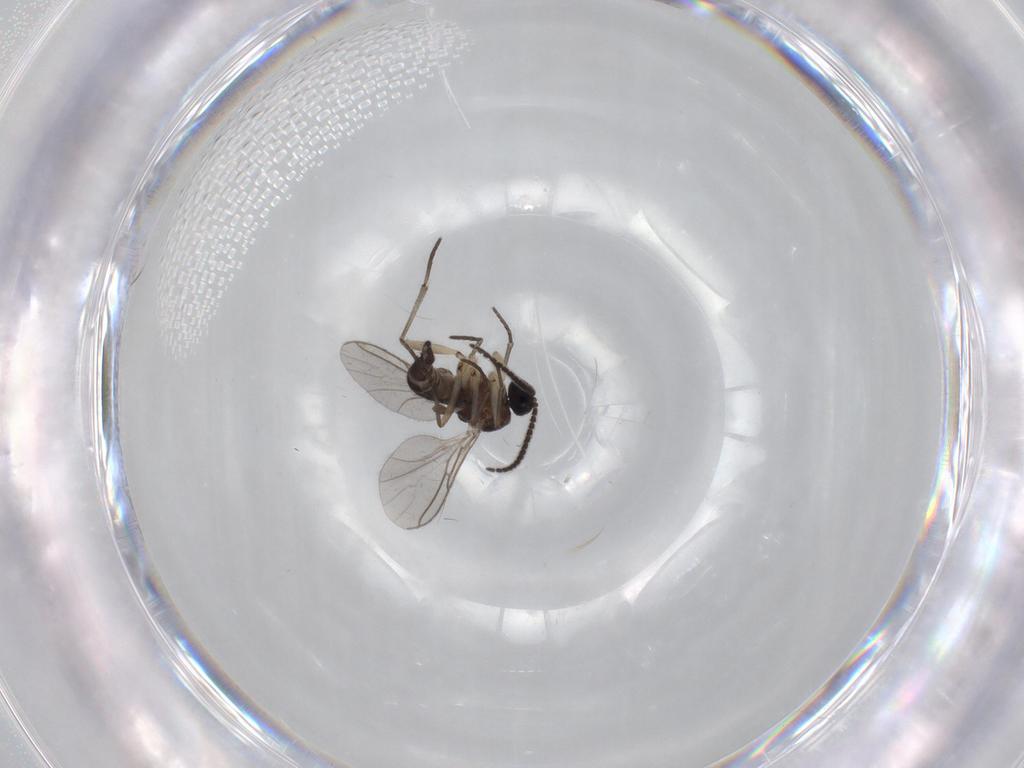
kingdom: Animalia
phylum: Arthropoda
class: Insecta
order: Diptera
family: Sciaridae
